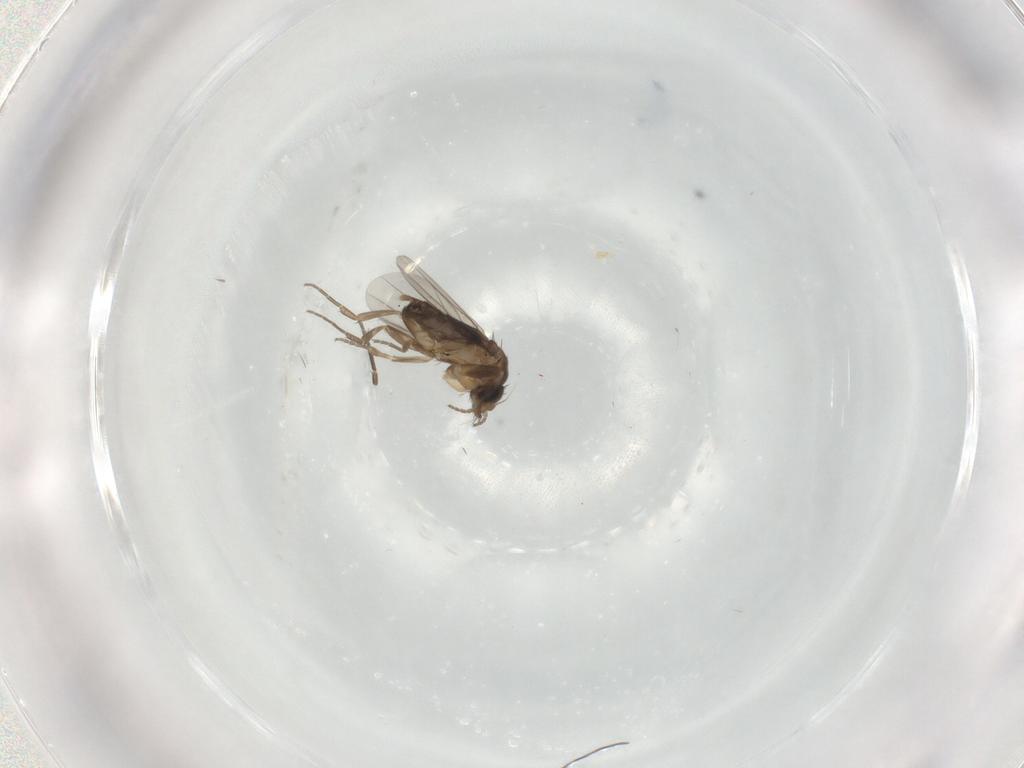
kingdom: Animalia
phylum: Arthropoda
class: Insecta
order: Diptera
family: Phoridae
